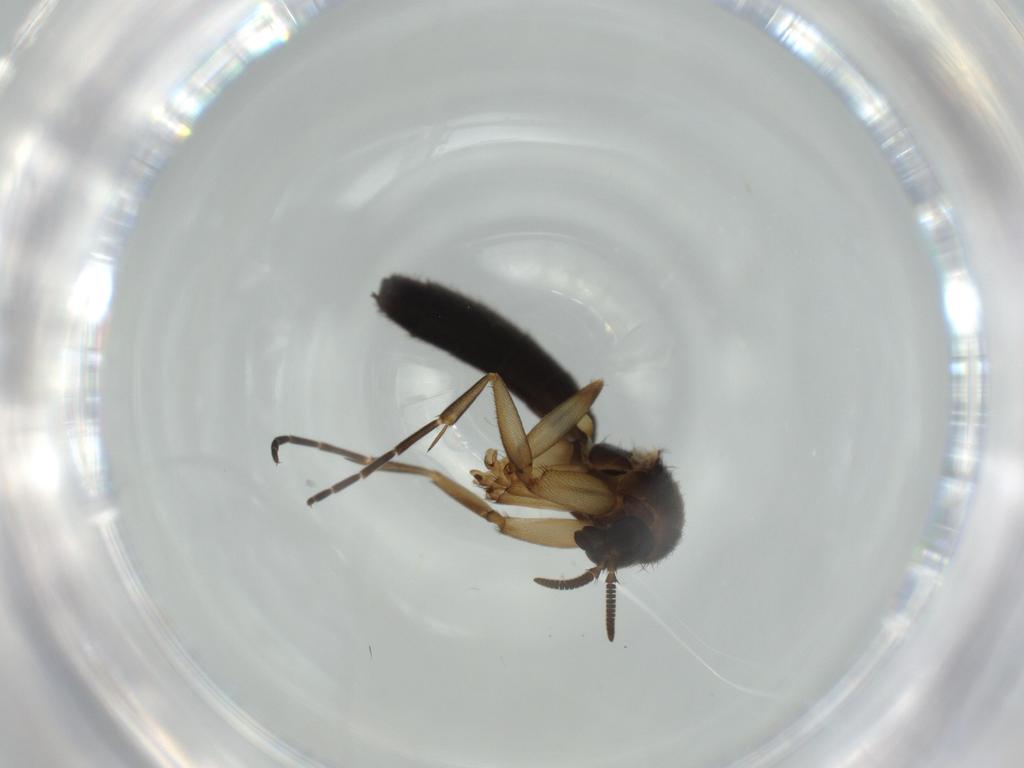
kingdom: Animalia
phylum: Arthropoda
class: Insecta
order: Diptera
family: Mycetophilidae
